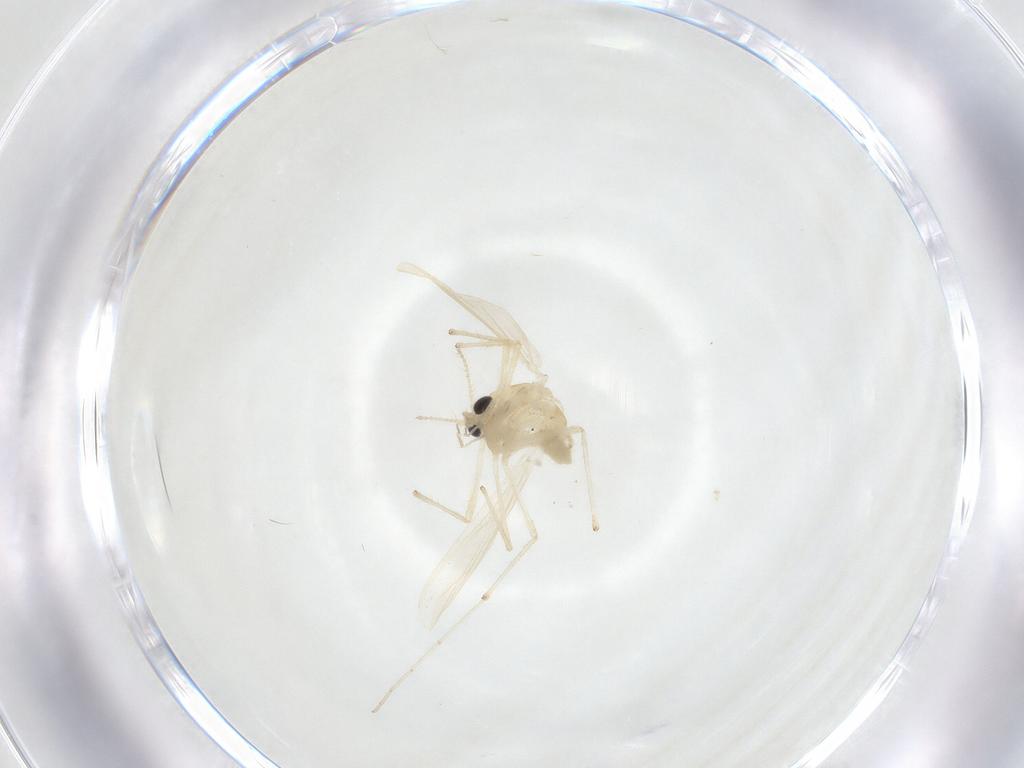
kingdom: Animalia
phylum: Arthropoda
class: Insecta
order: Diptera
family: Chironomidae
